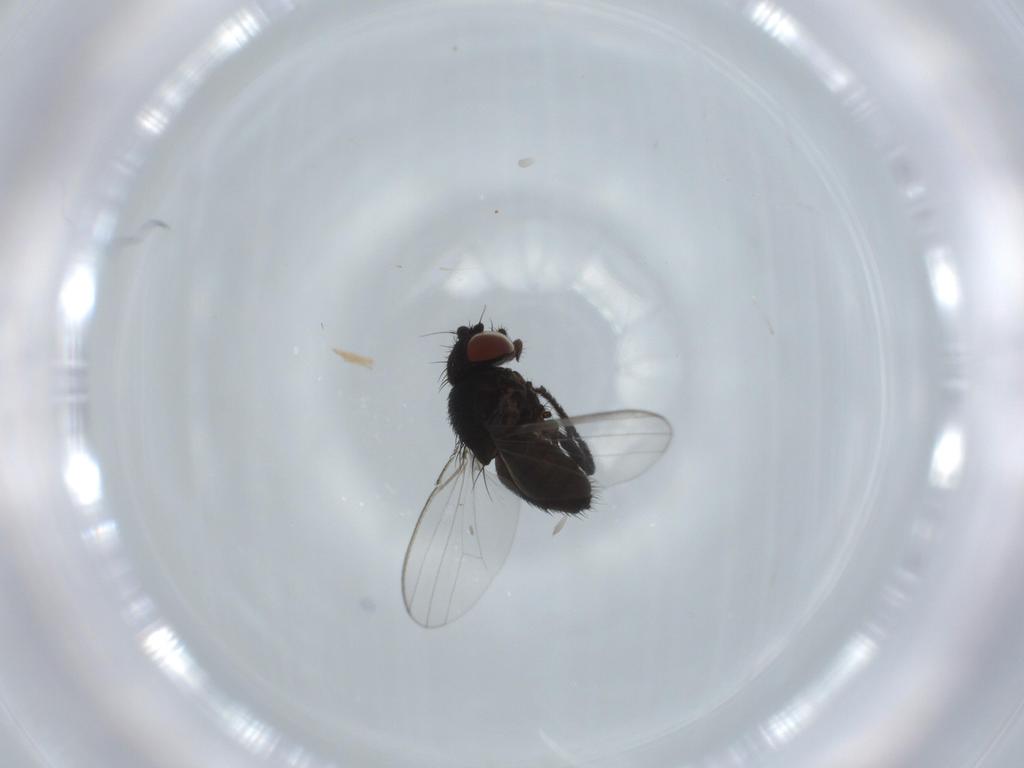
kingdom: Animalia
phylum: Arthropoda
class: Insecta
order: Diptera
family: Milichiidae
